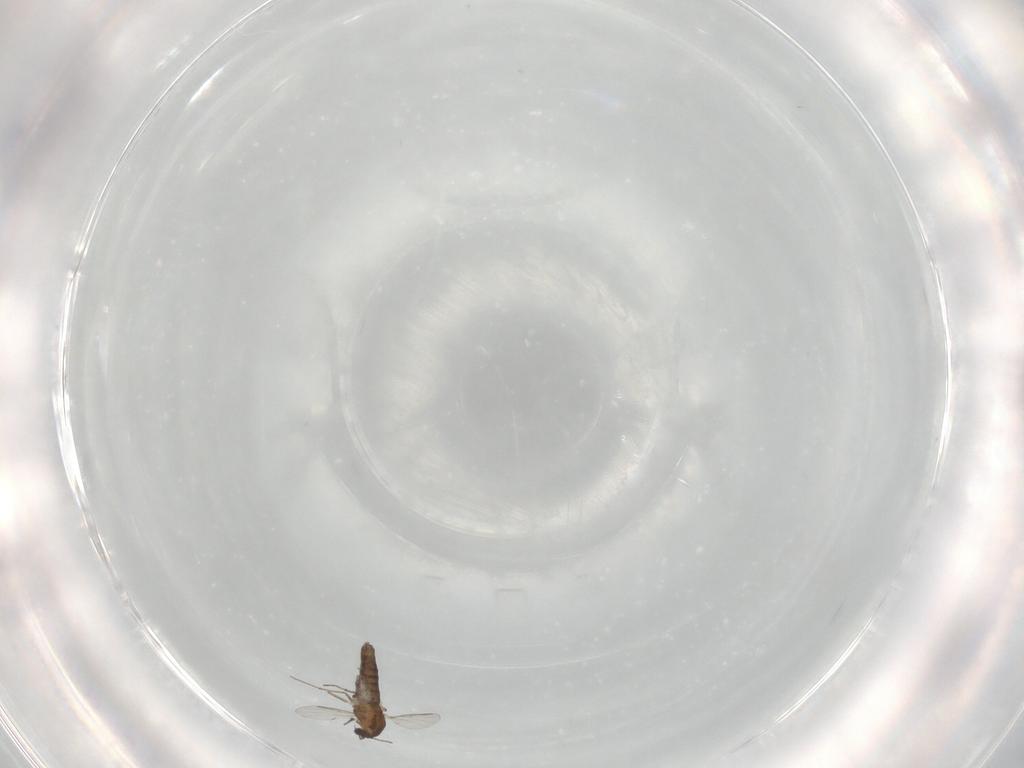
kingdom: Animalia
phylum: Arthropoda
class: Insecta
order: Diptera
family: Chironomidae
